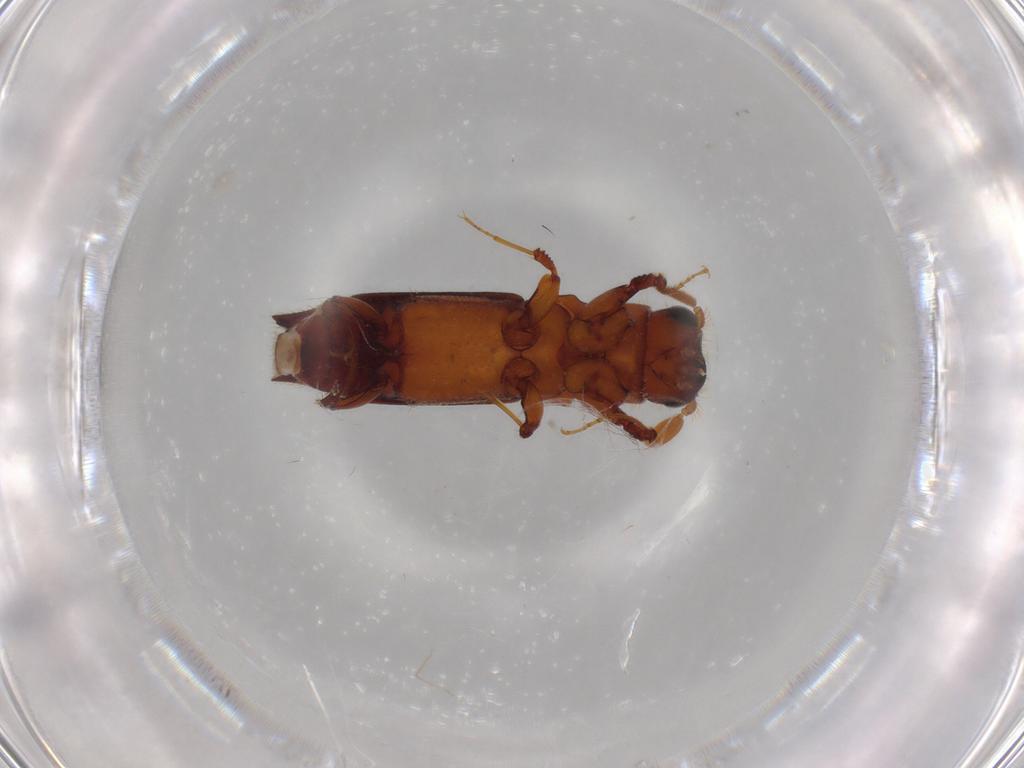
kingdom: Animalia
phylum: Arthropoda
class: Insecta
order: Coleoptera
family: Curculionidae
